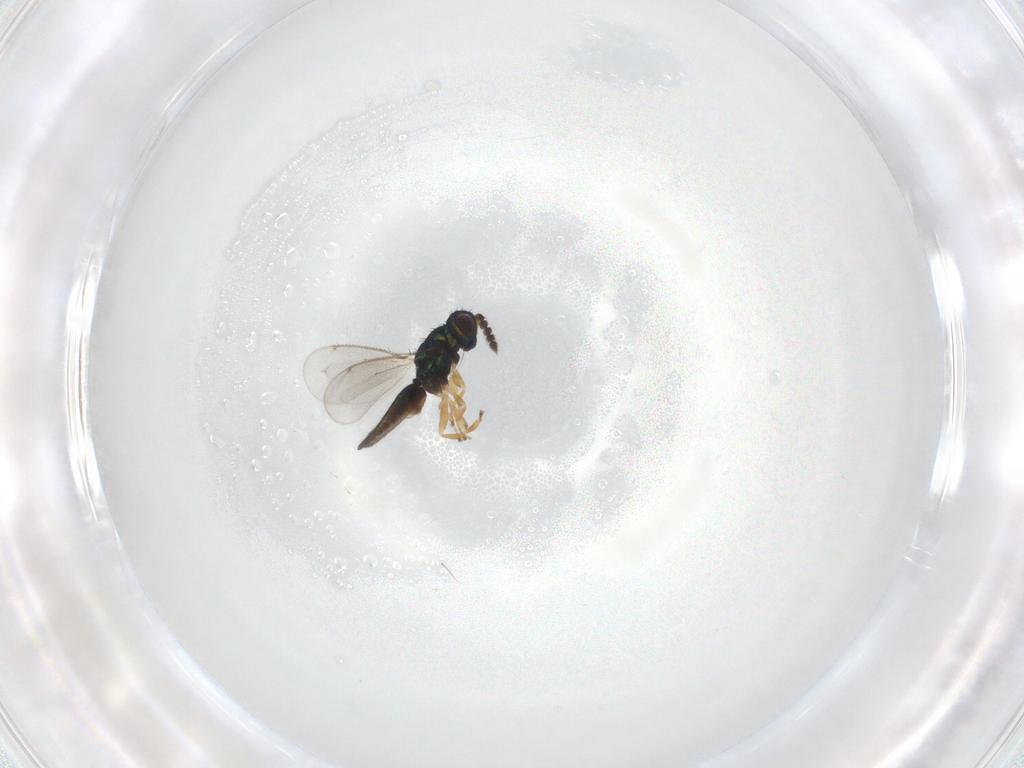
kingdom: Animalia
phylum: Arthropoda
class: Insecta
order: Hymenoptera
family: Eulophidae
